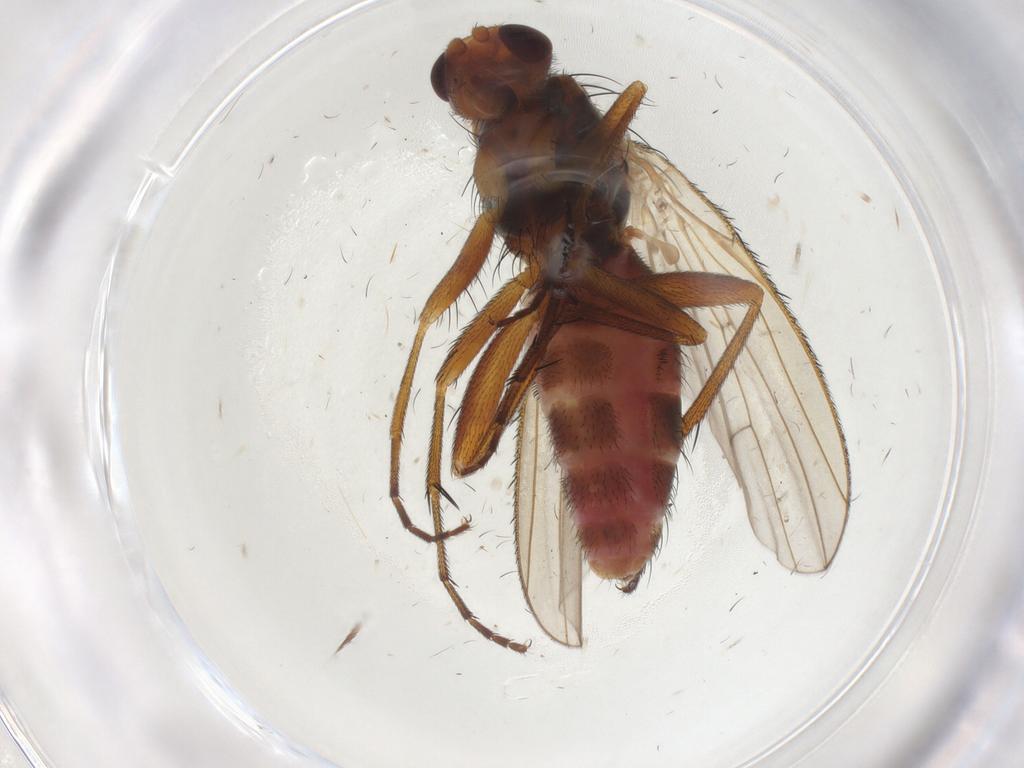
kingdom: Animalia
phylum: Arthropoda
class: Insecta
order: Diptera
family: Heleomyzidae
